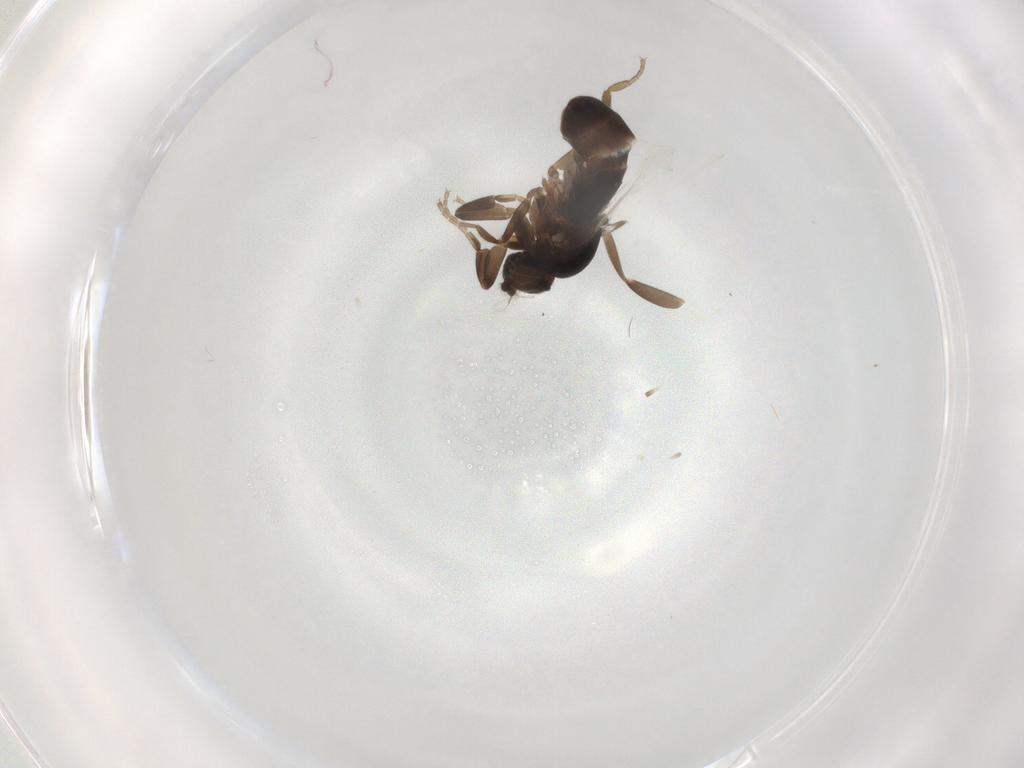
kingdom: Animalia
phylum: Arthropoda
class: Insecta
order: Diptera
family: Phoridae
